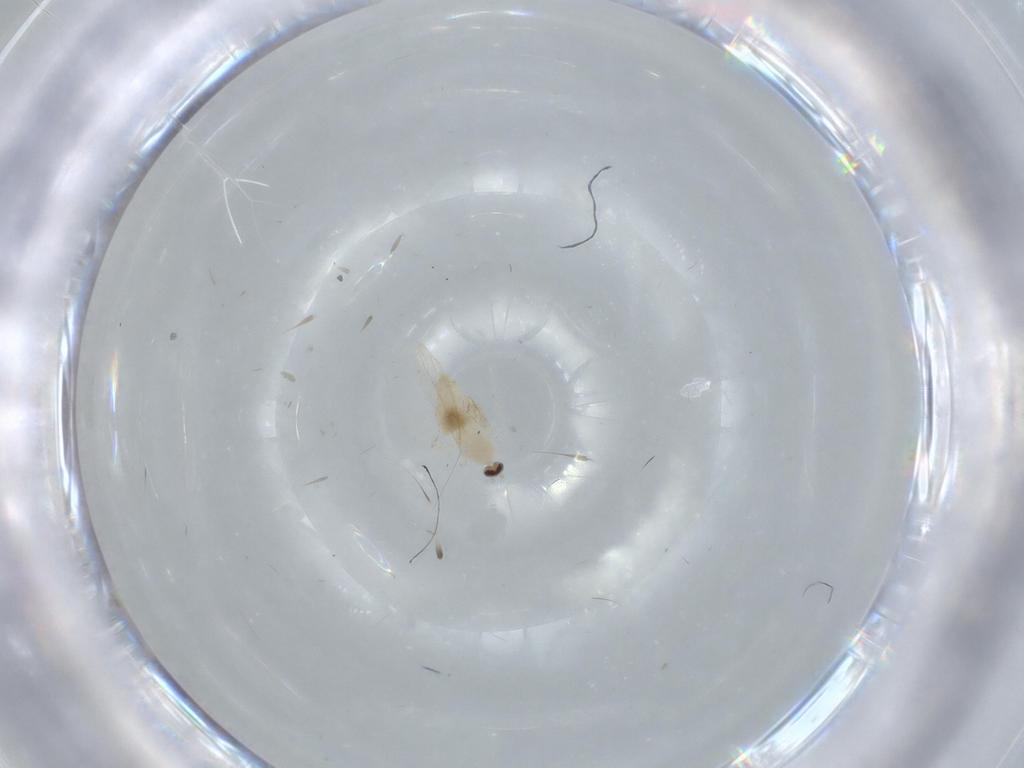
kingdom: Animalia
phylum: Arthropoda
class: Insecta
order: Diptera
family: Cecidomyiidae
